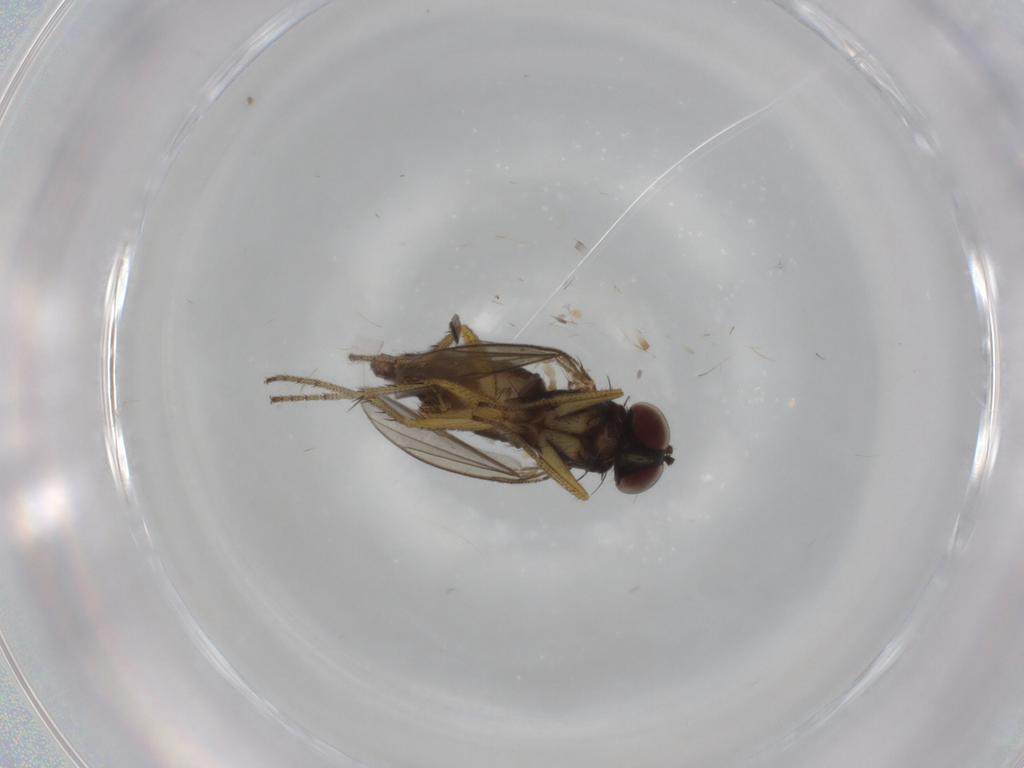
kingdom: Animalia
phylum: Arthropoda
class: Insecta
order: Diptera
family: Dolichopodidae
